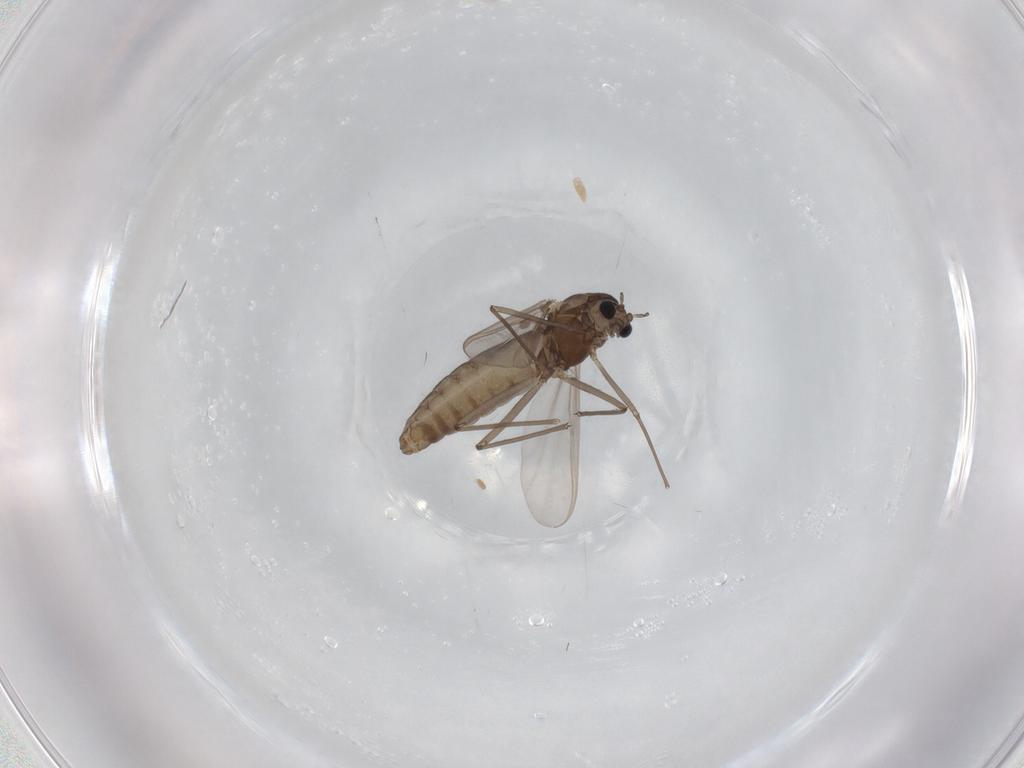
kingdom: Animalia
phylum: Arthropoda
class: Insecta
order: Diptera
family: Chironomidae
